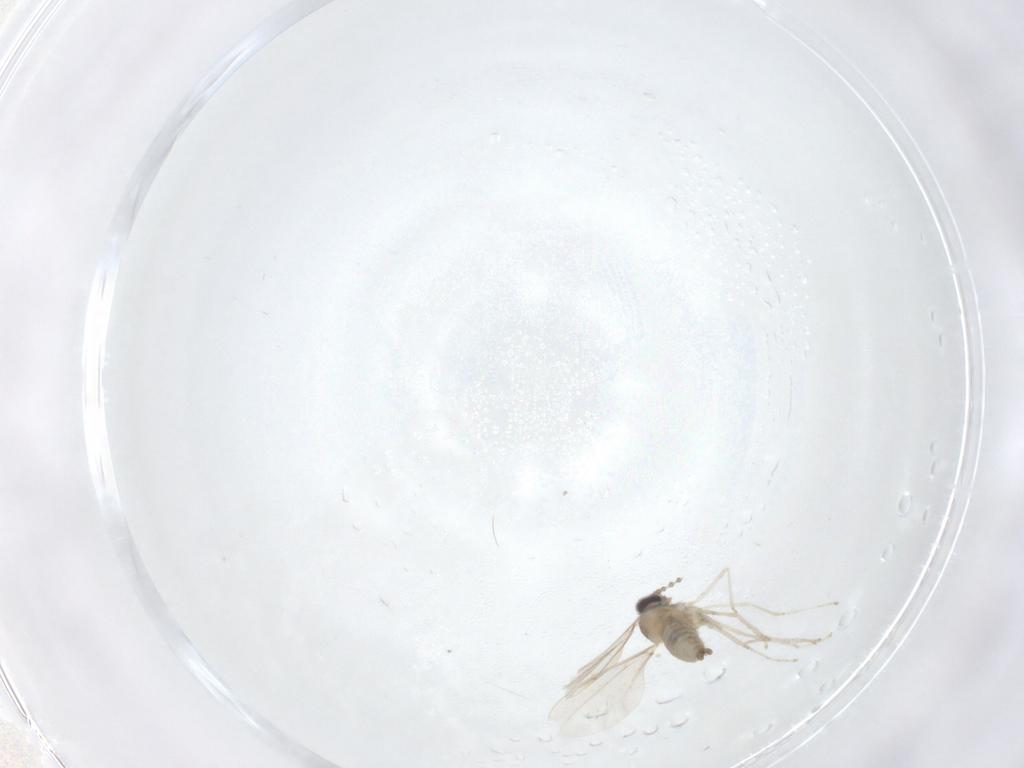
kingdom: Animalia
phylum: Arthropoda
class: Insecta
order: Diptera
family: Cecidomyiidae
